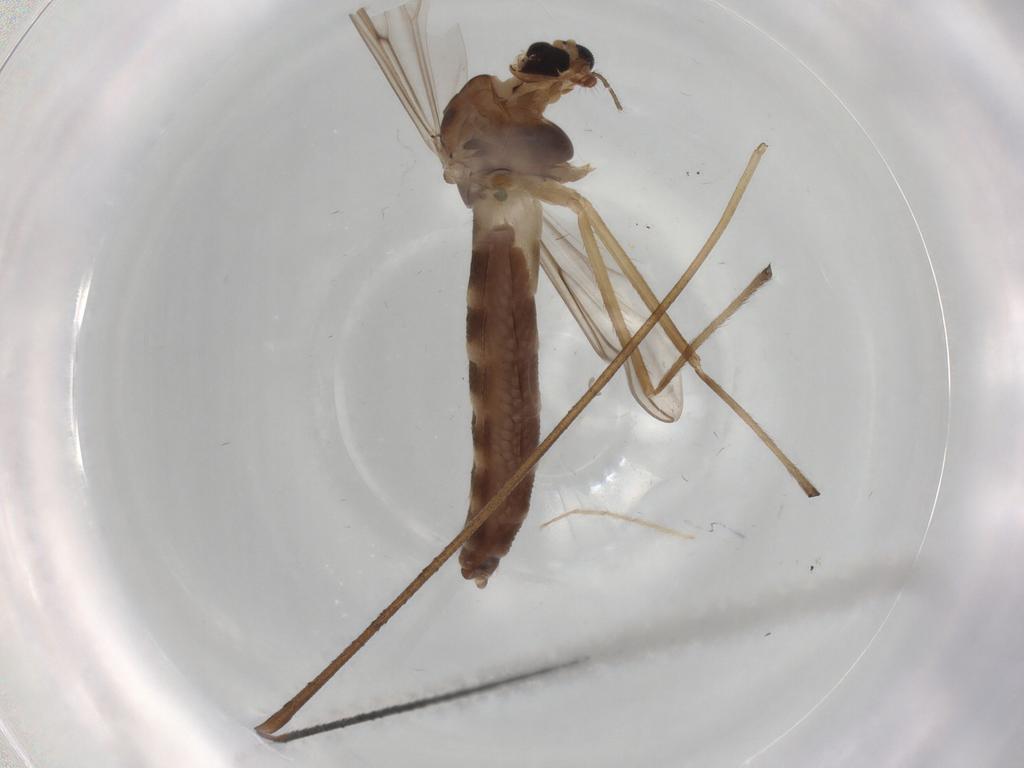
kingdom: Animalia
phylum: Arthropoda
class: Insecta
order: Diptera
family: Chironomidae
